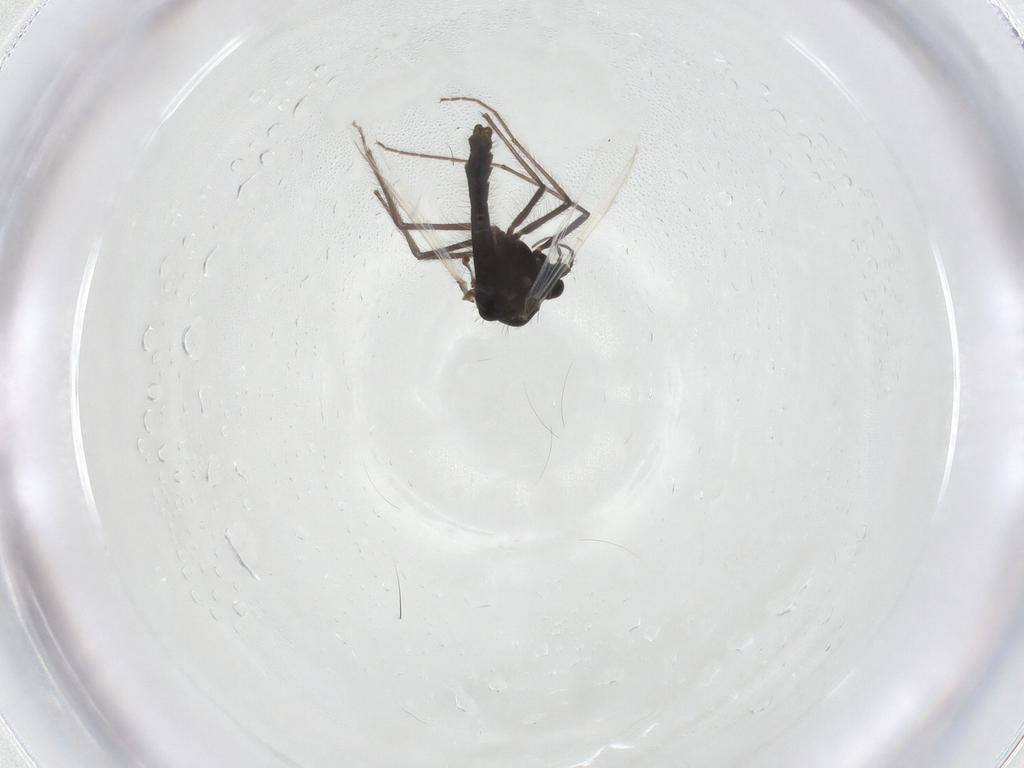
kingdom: Animalia
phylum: Arthropoda
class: Insecta
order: Diptera
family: Chironomidae
